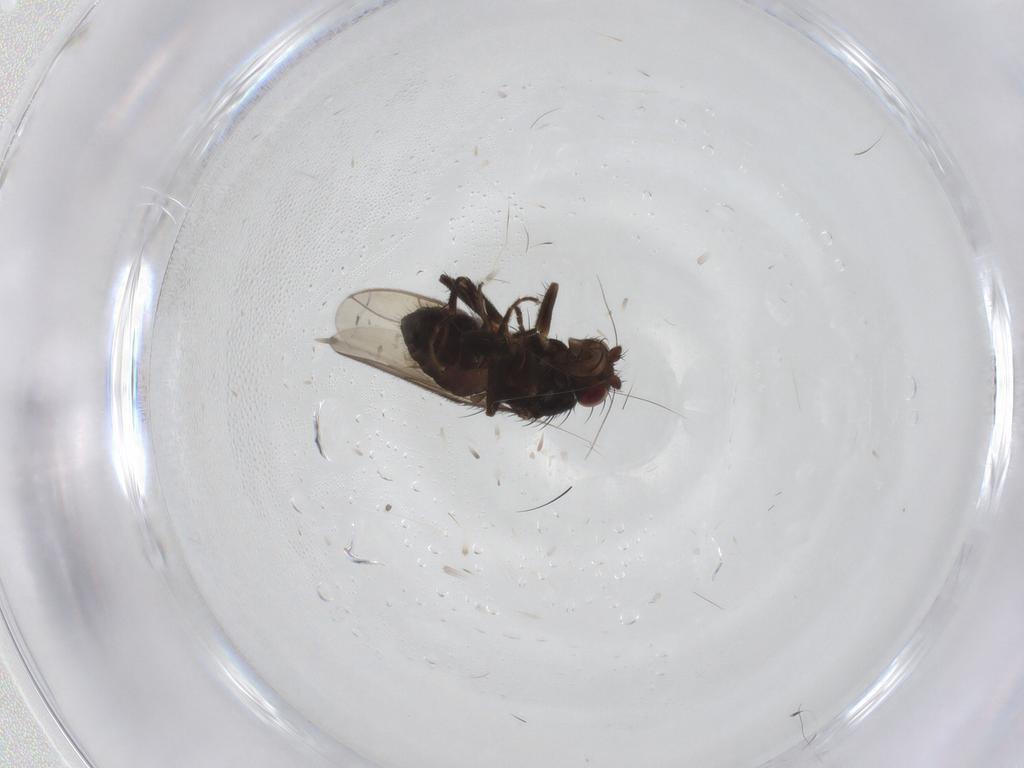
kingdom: Animalia
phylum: Arthropoda
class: Insecta
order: Diptera
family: Sphaeroceridae
